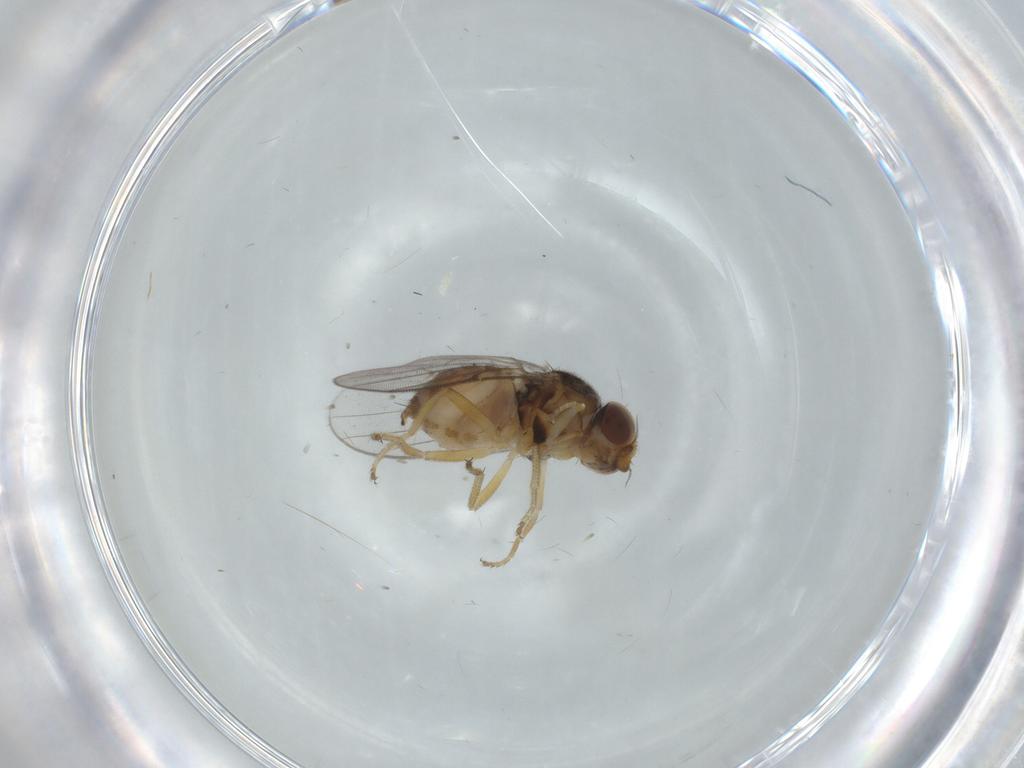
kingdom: Animalia
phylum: Arthropoda
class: Insecta
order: Diptera
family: Chloropidae
